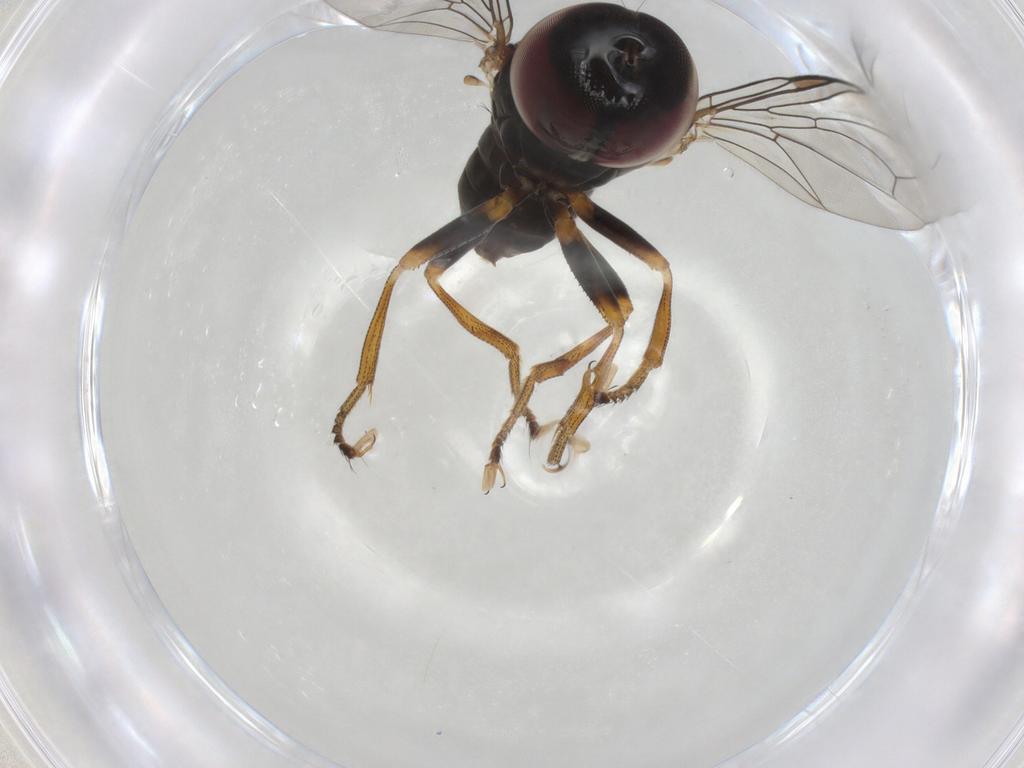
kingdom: Animalia
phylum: Arthropoda
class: Insecta
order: Diptera
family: Pipunculidae
